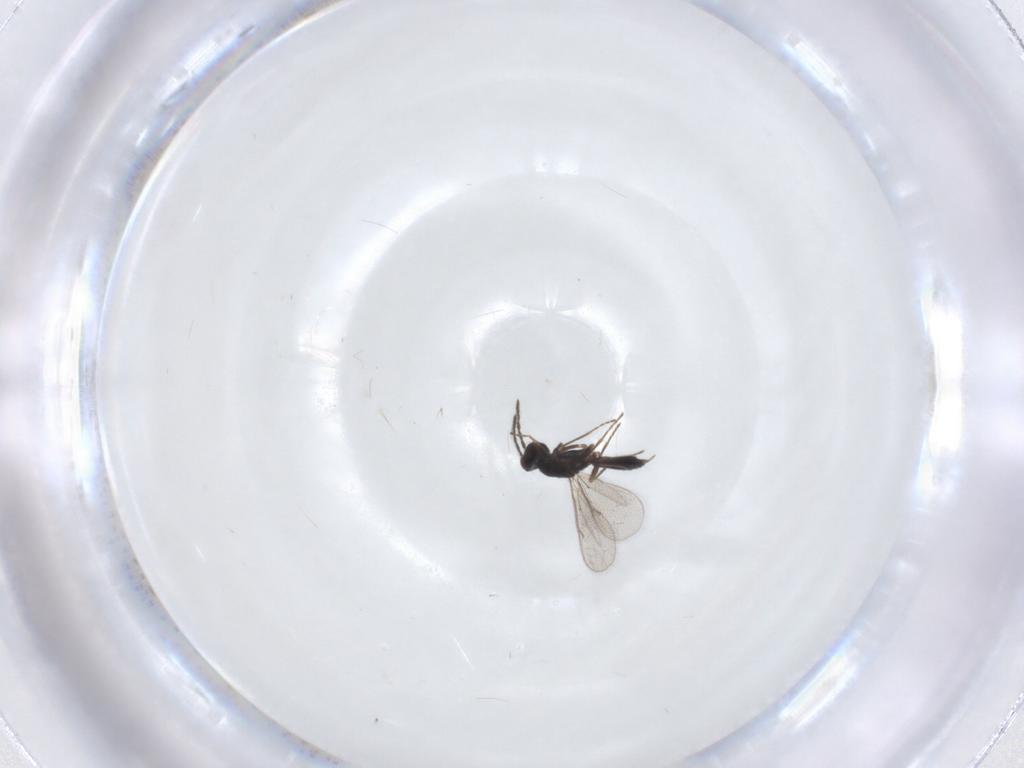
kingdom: Animalia
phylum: Arthropoda
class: Insecta
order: Hymenoptera
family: Eulophidae
